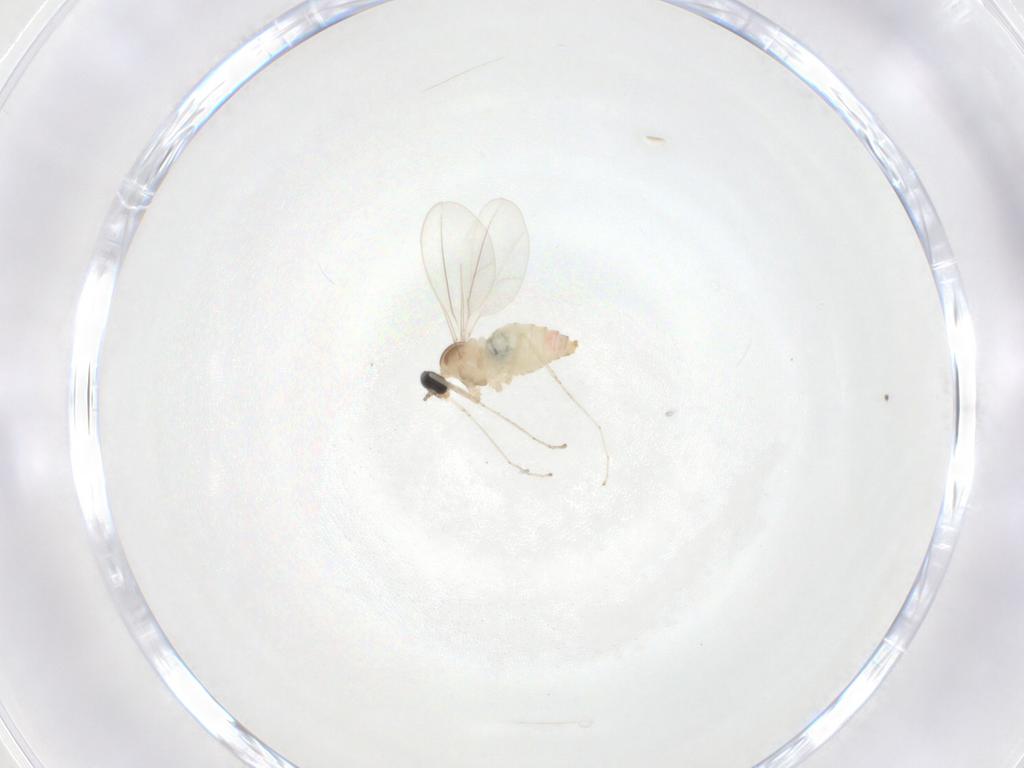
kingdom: Animalia
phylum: Arthropoda
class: Insecta
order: Diptera
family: Cecidomyiidae
